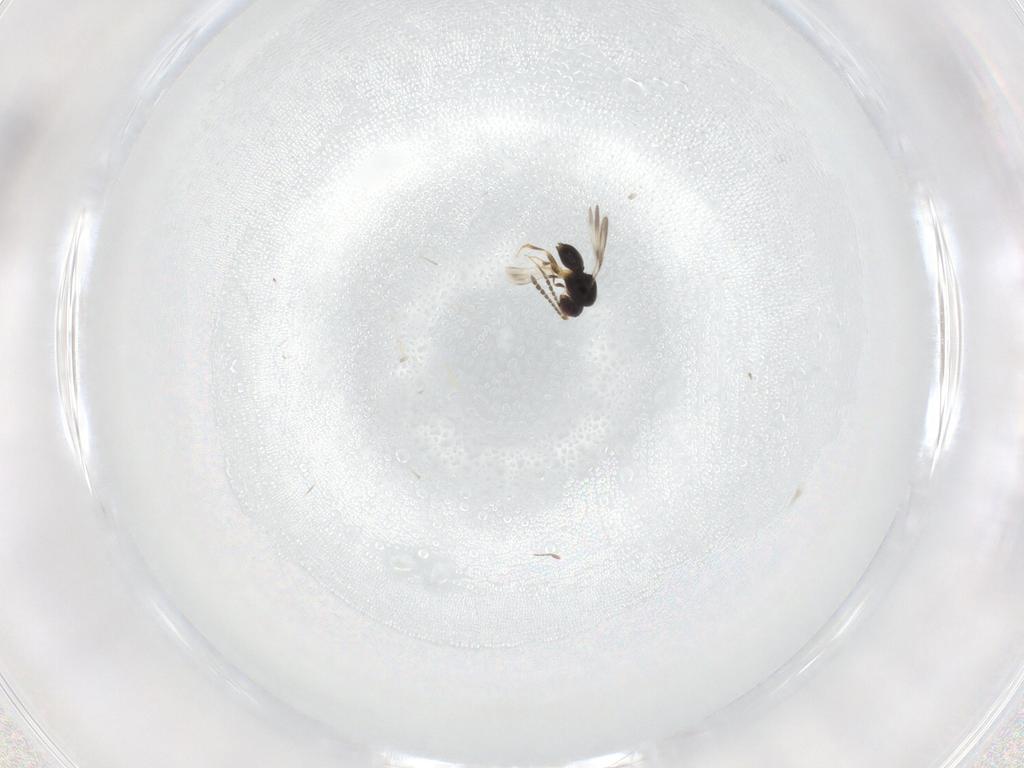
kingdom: Animalia
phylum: Arthropoda
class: Insecta
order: Hymenoptera
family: Ceraphronidae
